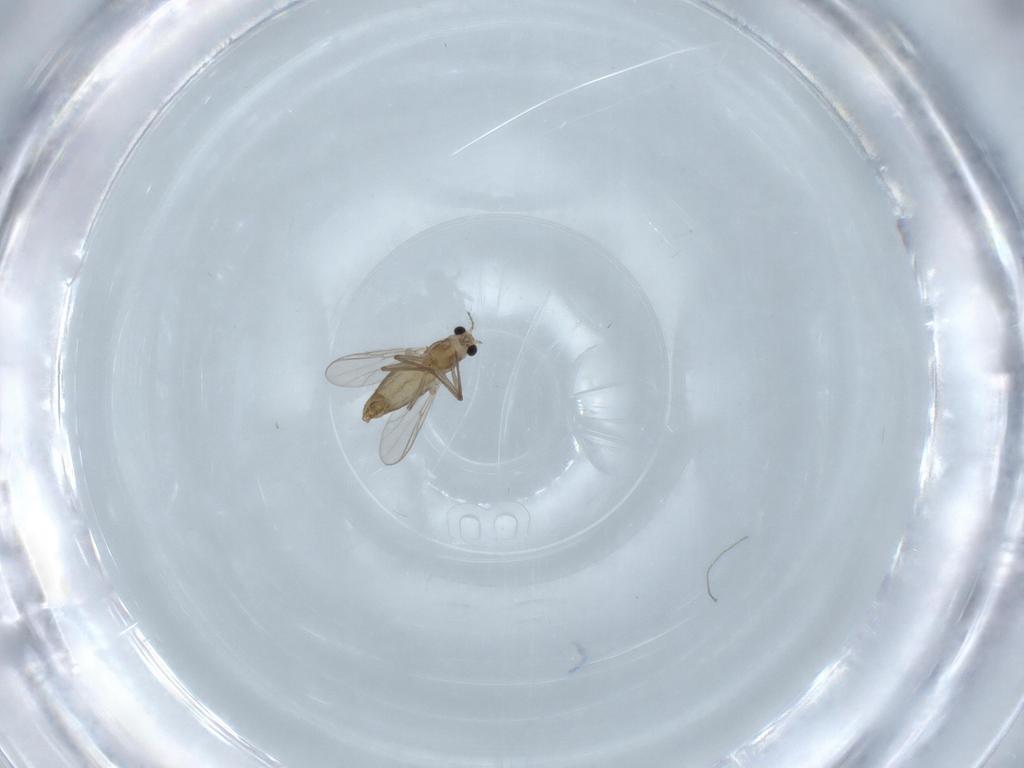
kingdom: Animalia
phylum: Arthropoda
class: Insecta
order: Diptera
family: Chironomidae
